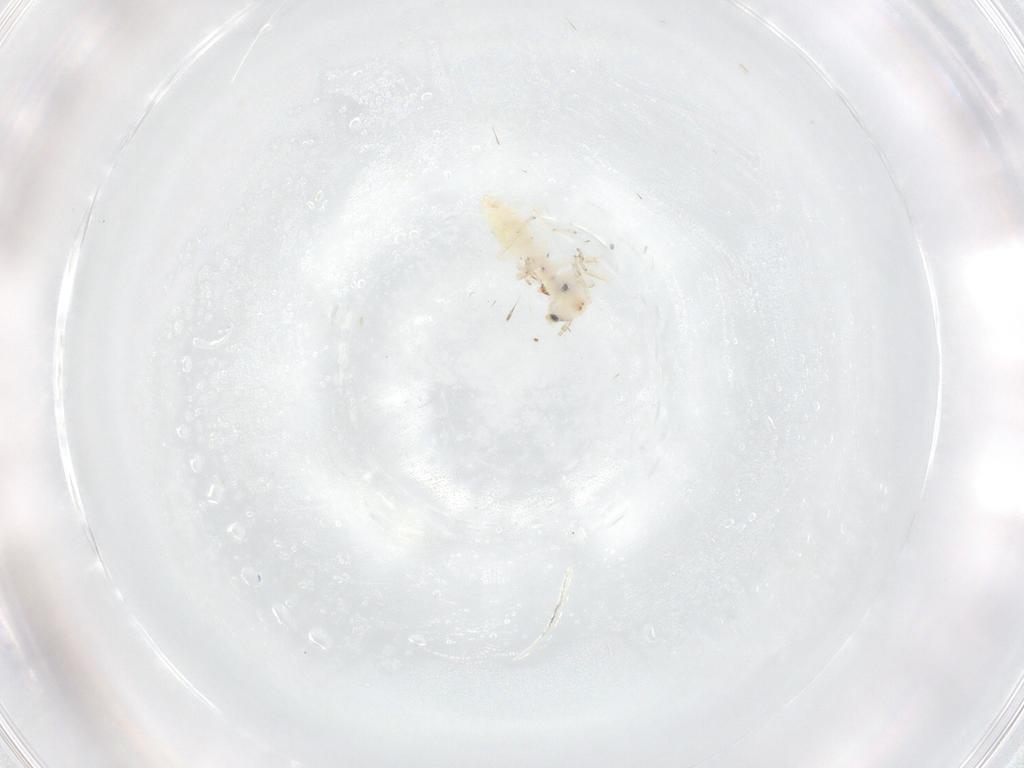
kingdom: Animalia
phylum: Arthropoda
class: Insecta
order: Psocodea
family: Lepidopsocidae
